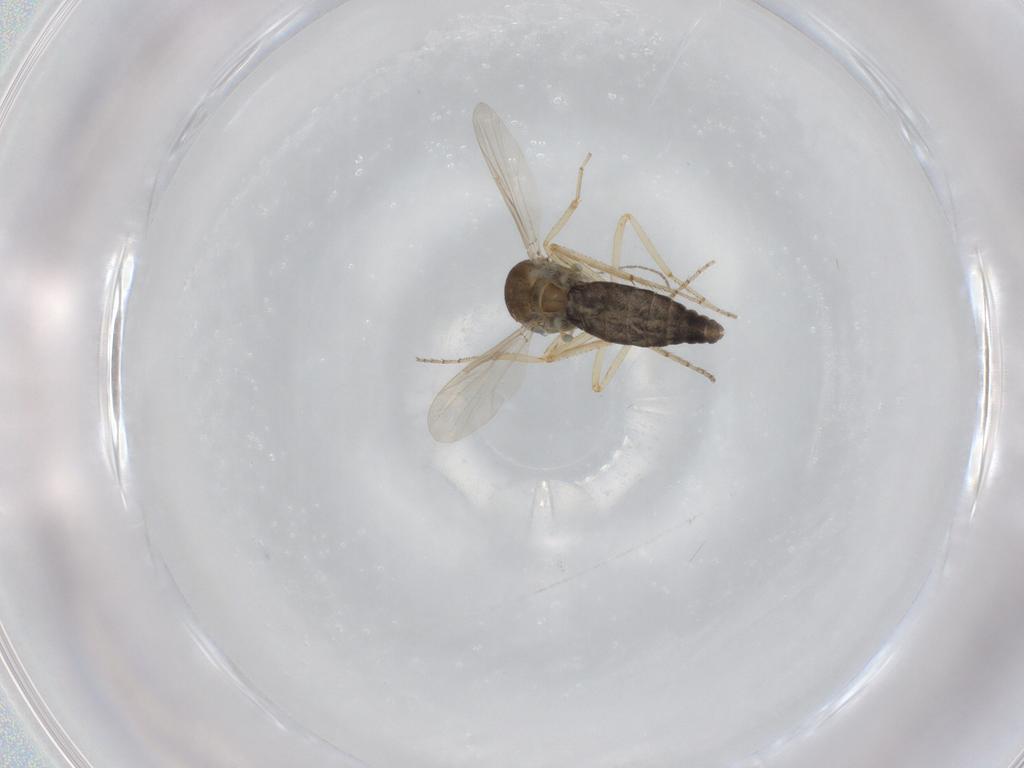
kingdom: Animalia
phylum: Arthropoda
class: Insecta
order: Diptera
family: Ceratopogonidae
